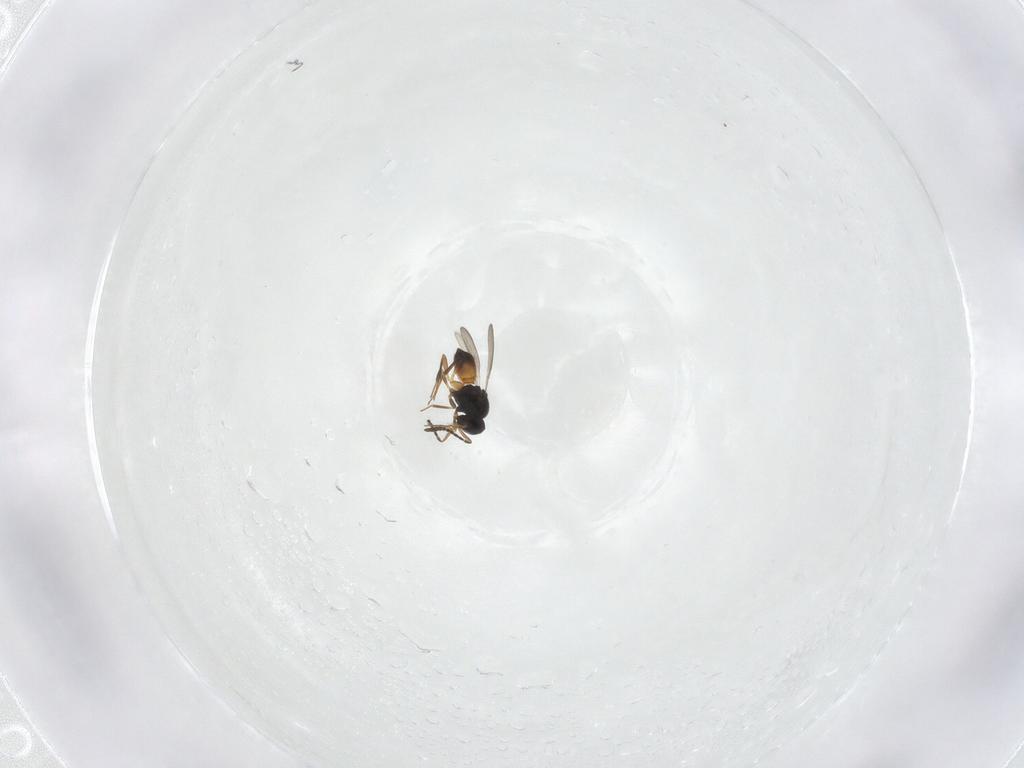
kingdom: Animalia
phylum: Arthropoda
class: Insecta
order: Hymenoptera
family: Scelionidae
